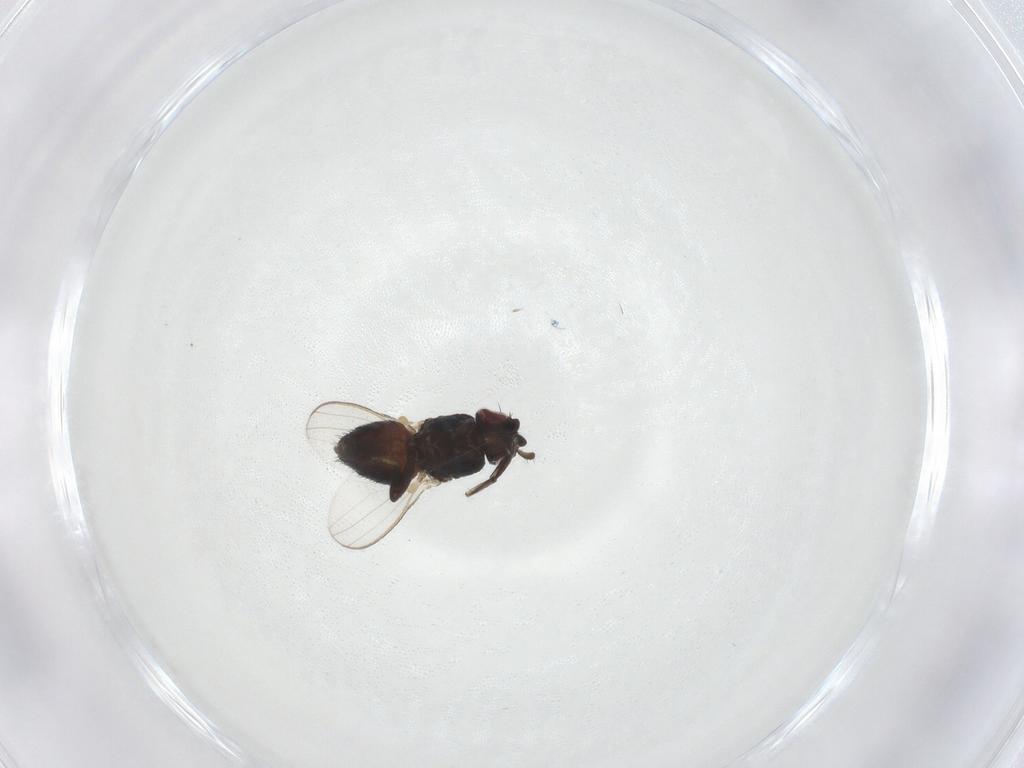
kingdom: Animalia
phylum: Arthropoda
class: Insecta
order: Diptera
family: Milichiidae
